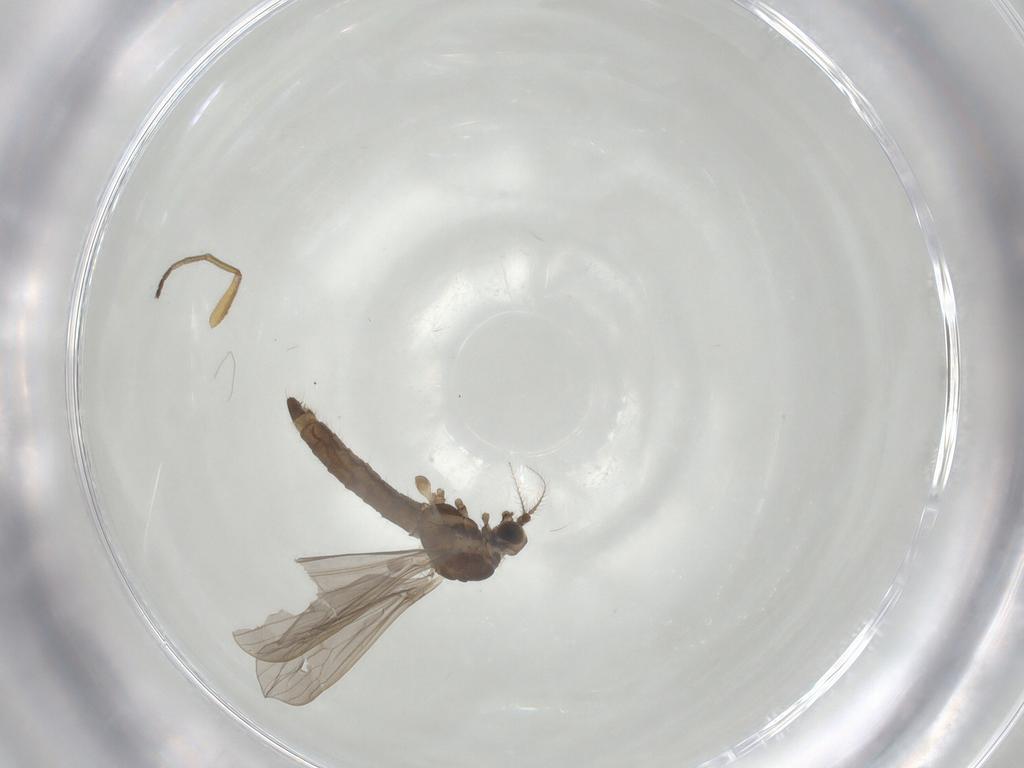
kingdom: Animalia
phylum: Arthropoda
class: Insecta
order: Diptera
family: Limoniidae
